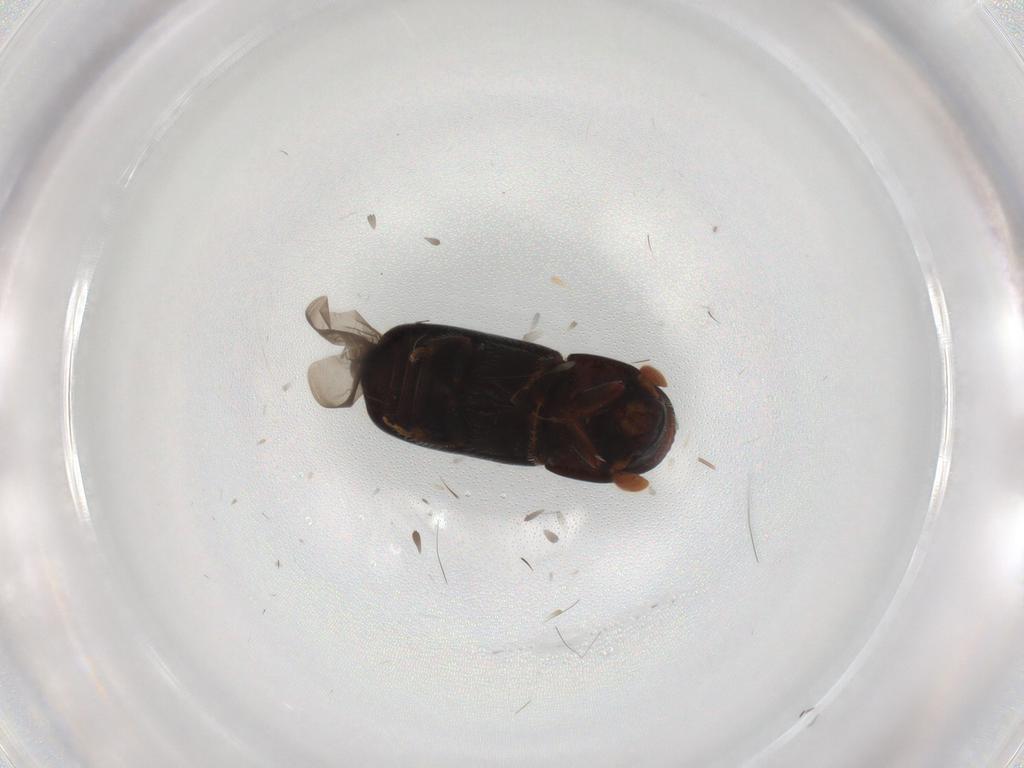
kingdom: Animalia
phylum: Arthropoda
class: Insecta
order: Coleoptera
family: Curculionidae
